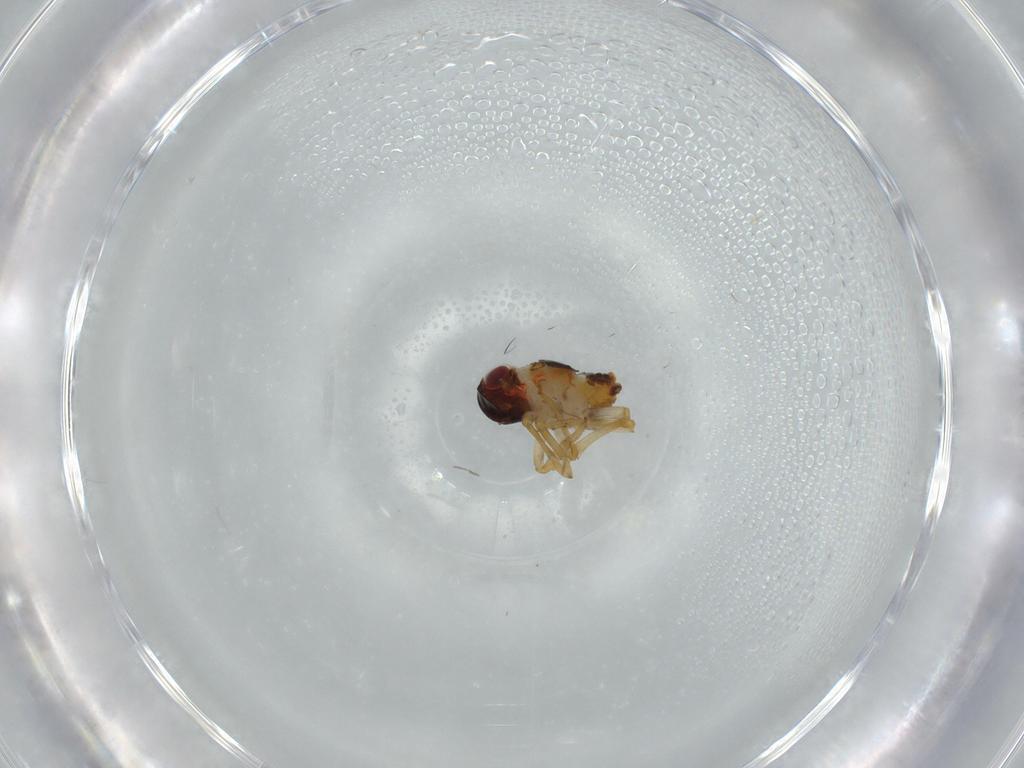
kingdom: Animalia
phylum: Arthropoda
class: Insecta
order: Hemiptera
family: Issidae
